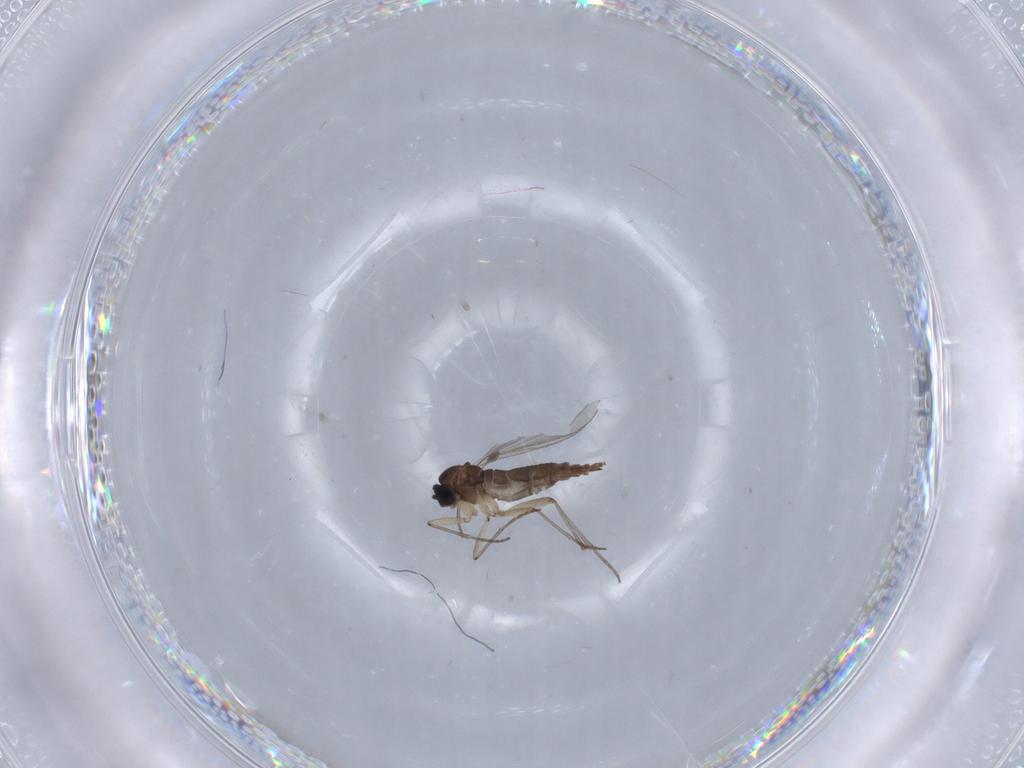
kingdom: Animalia
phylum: Arthropoda
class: Insecta
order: Diptera
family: Sciaridae
